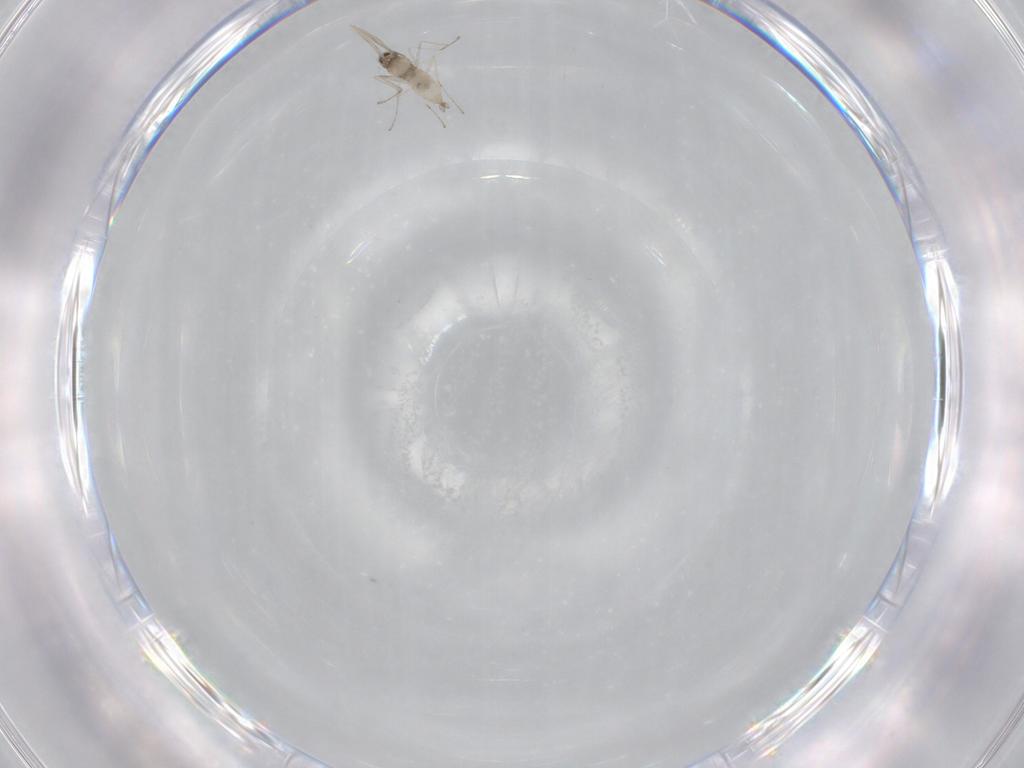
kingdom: Animalia
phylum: Arthropoda
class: Insecta
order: Diptera
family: Cecidomyiidae
